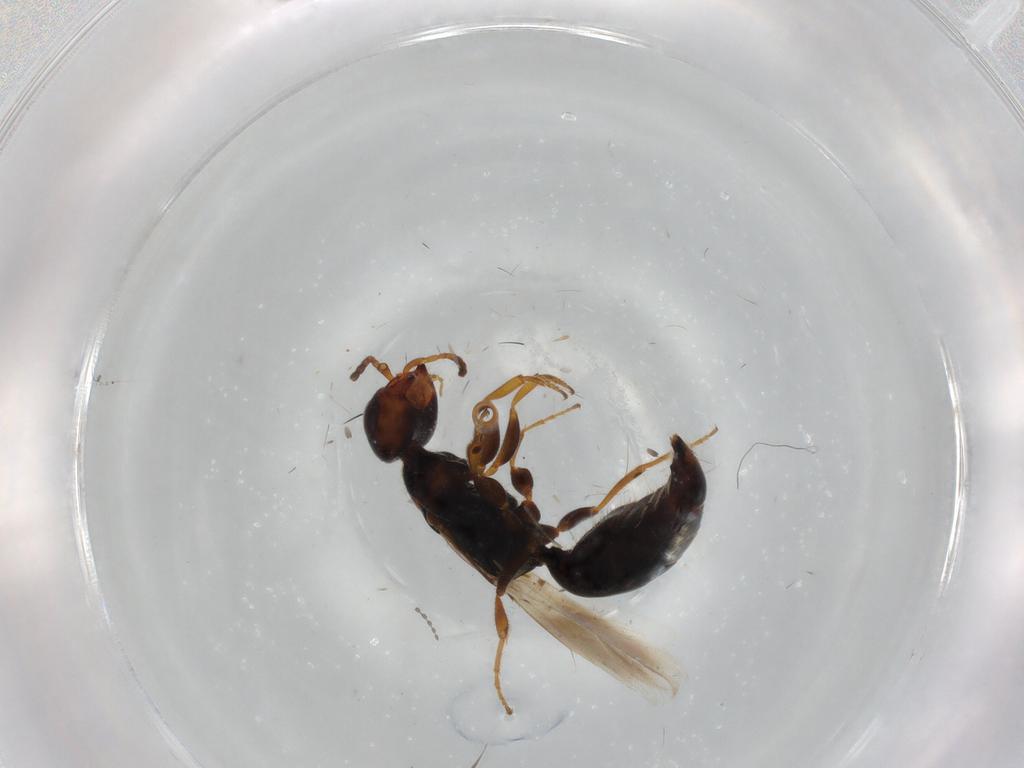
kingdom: Animalia
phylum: Arthropoda
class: Insecta
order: Hymenoptera
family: Bethylidae
